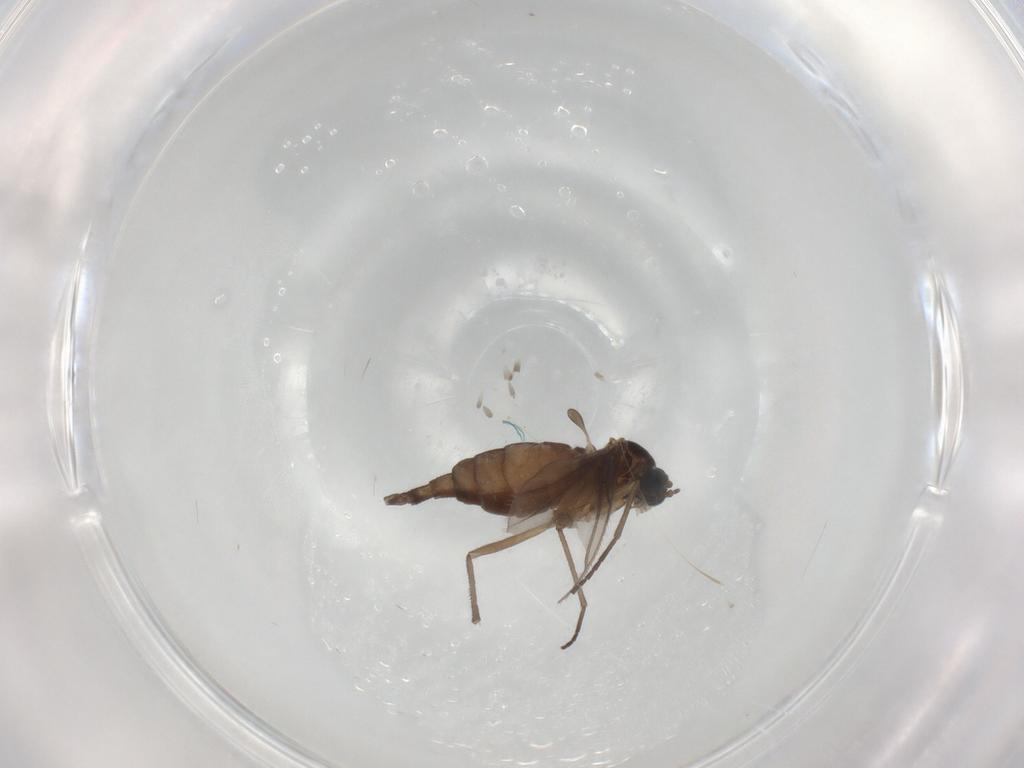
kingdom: Animalia
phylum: Arthropoda
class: Insecta
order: Diptera
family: Sciaridae
